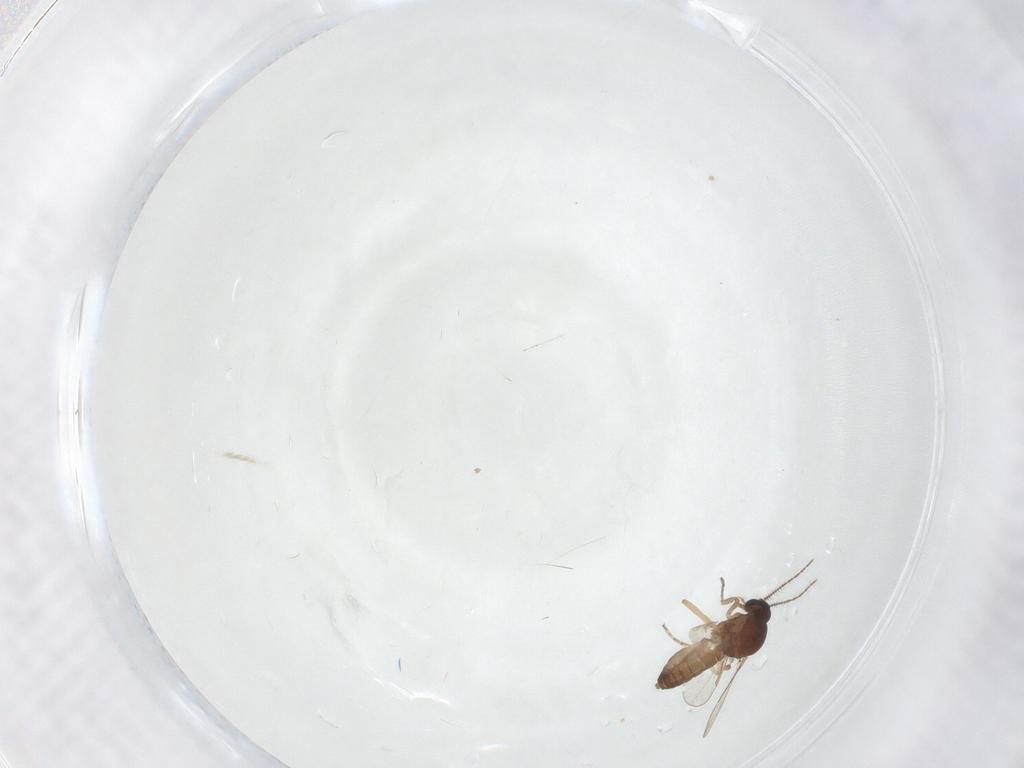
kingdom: Animalia
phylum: Arthropoda
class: Insecta
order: Diptera
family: Ceratopogonidae
